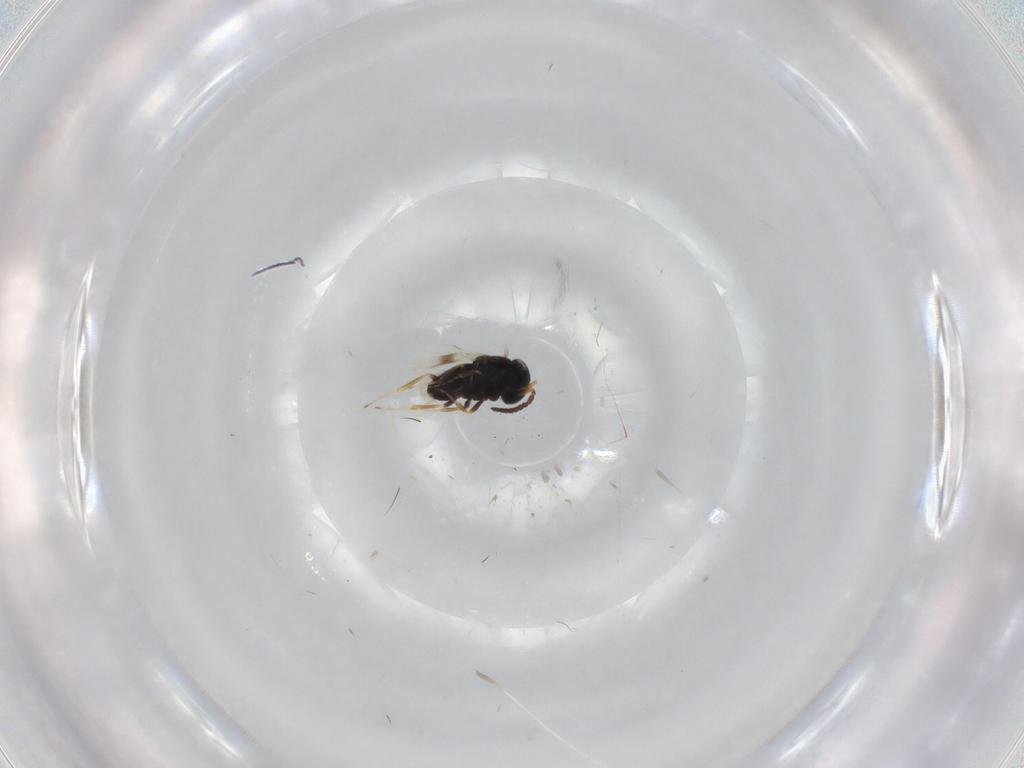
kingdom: Animalia
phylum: Arthropoda
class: Insecta
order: Hymenoptera
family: Scelionidae
